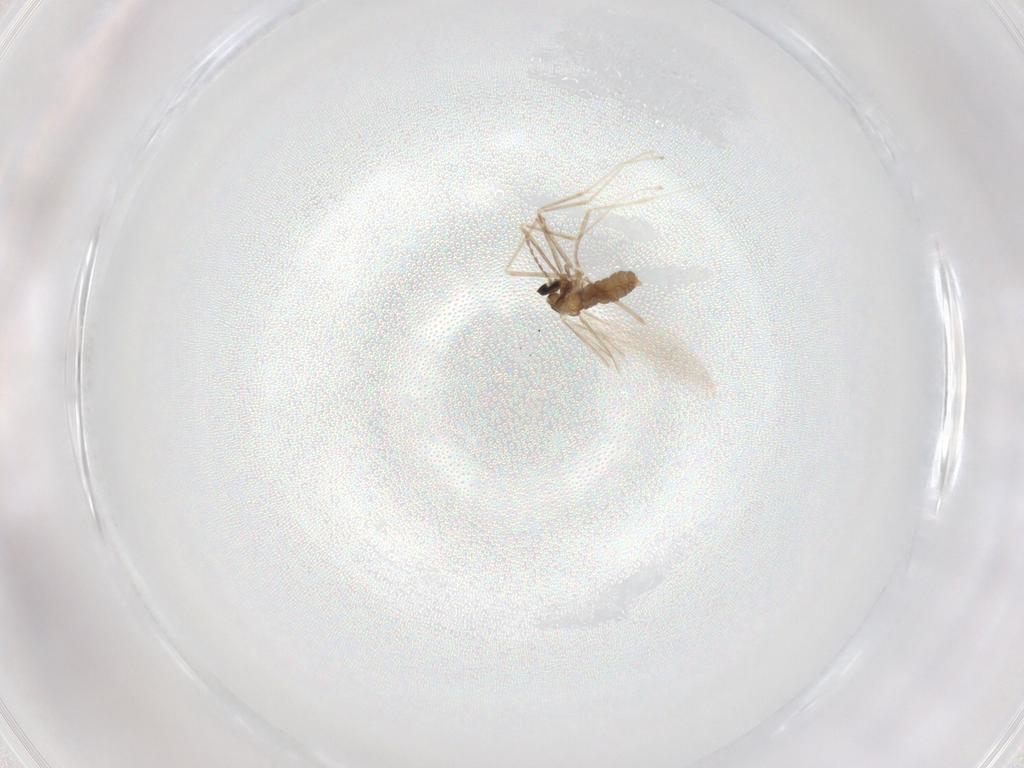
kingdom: Animalia
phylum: Arthropoda
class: Insecta
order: Diptera
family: Cecidomyiidae
